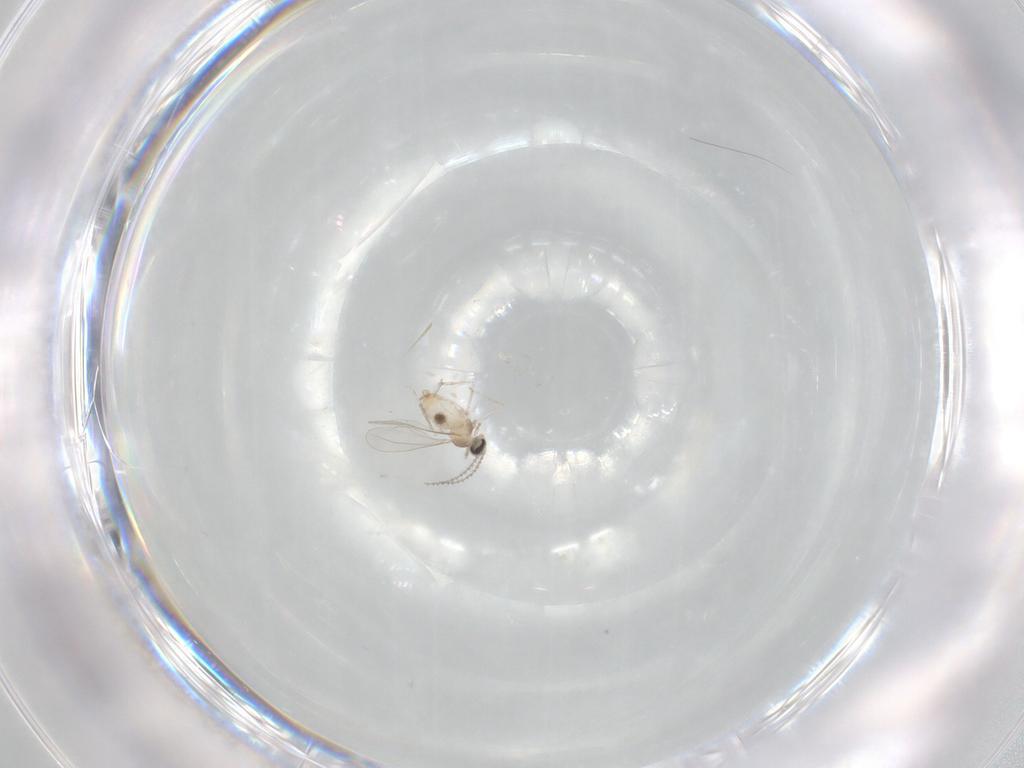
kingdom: Animalia
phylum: Arthropoda
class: Insecta
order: Diptera
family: Cecidomyiidae
